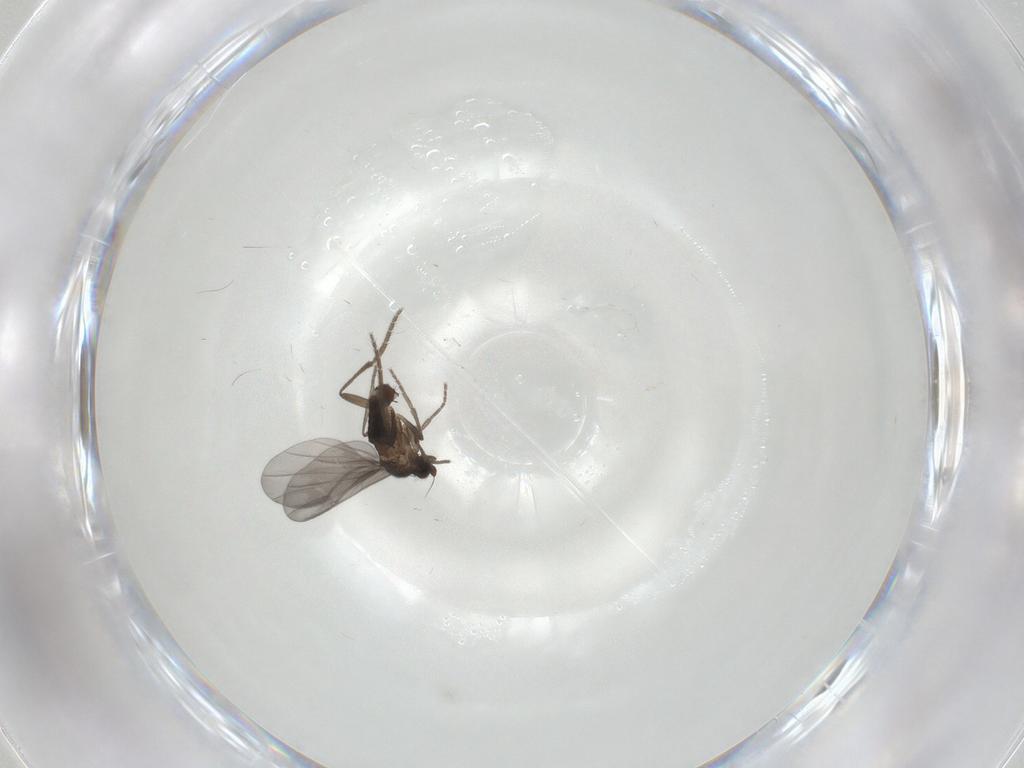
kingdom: Animalia
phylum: Arthropoda
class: Insecta
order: Diptera
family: Phoridae
